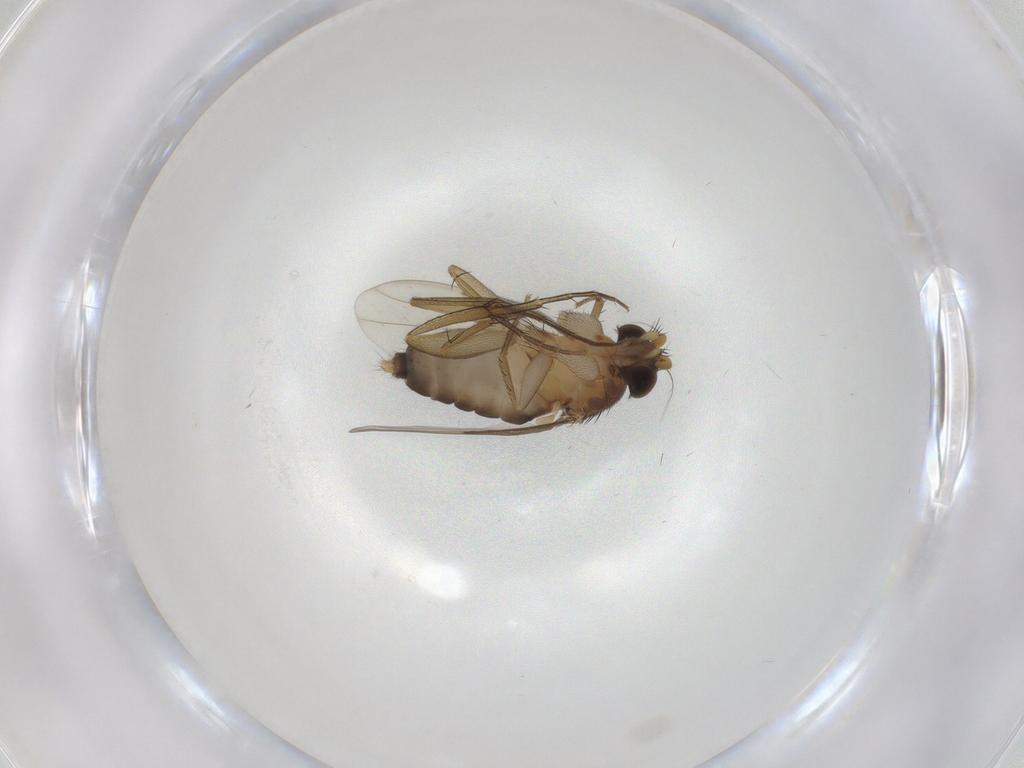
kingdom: Animalia
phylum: Arthropoda
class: Insecta
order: Diptera
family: Phoridae
